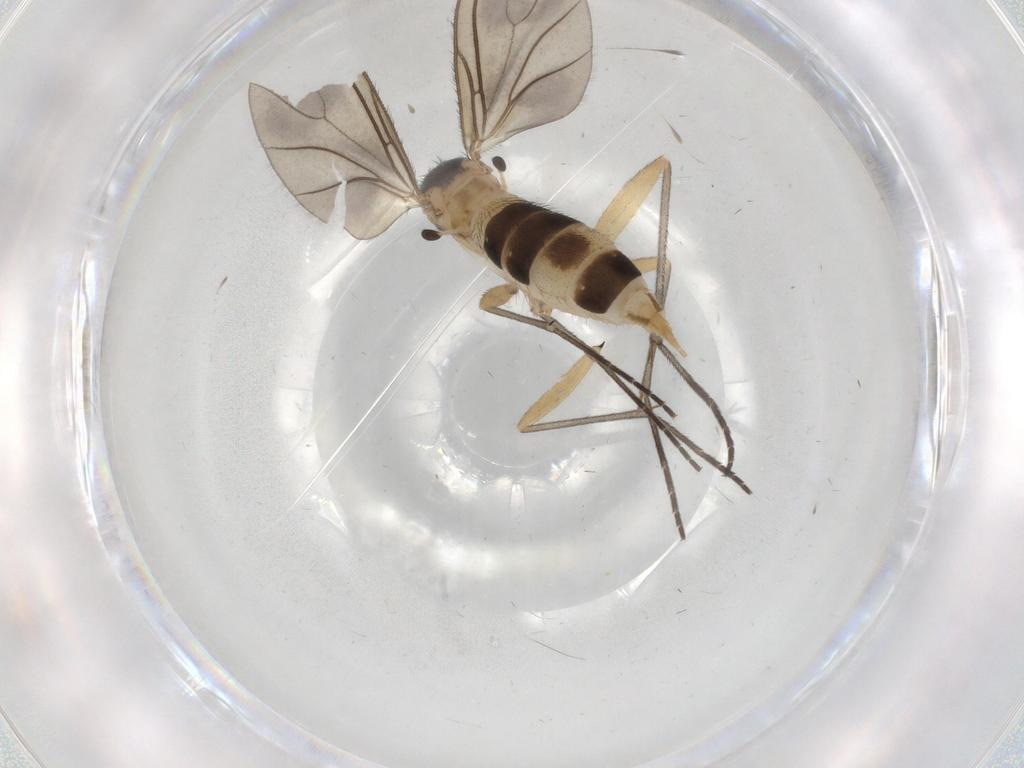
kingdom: Animalia
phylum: Arthropoda
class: Insecta
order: Diptera
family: Sciaridae
